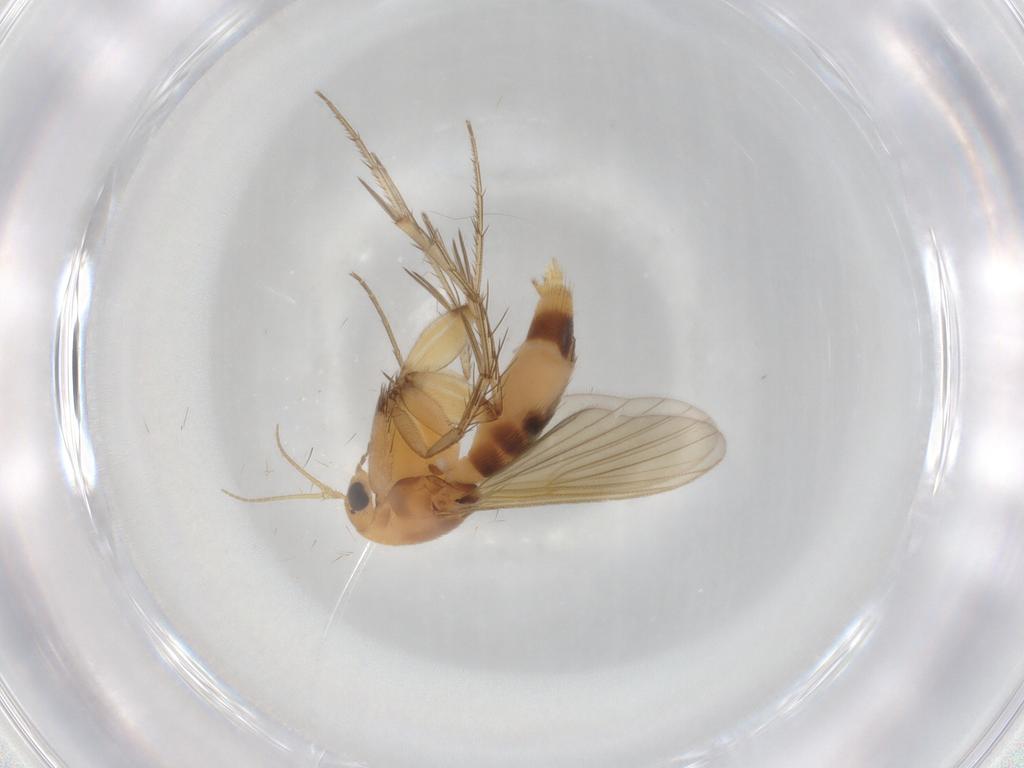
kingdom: Animalia
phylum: Arthropoda
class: Insecta
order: Diptera
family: Mycetophilidae
